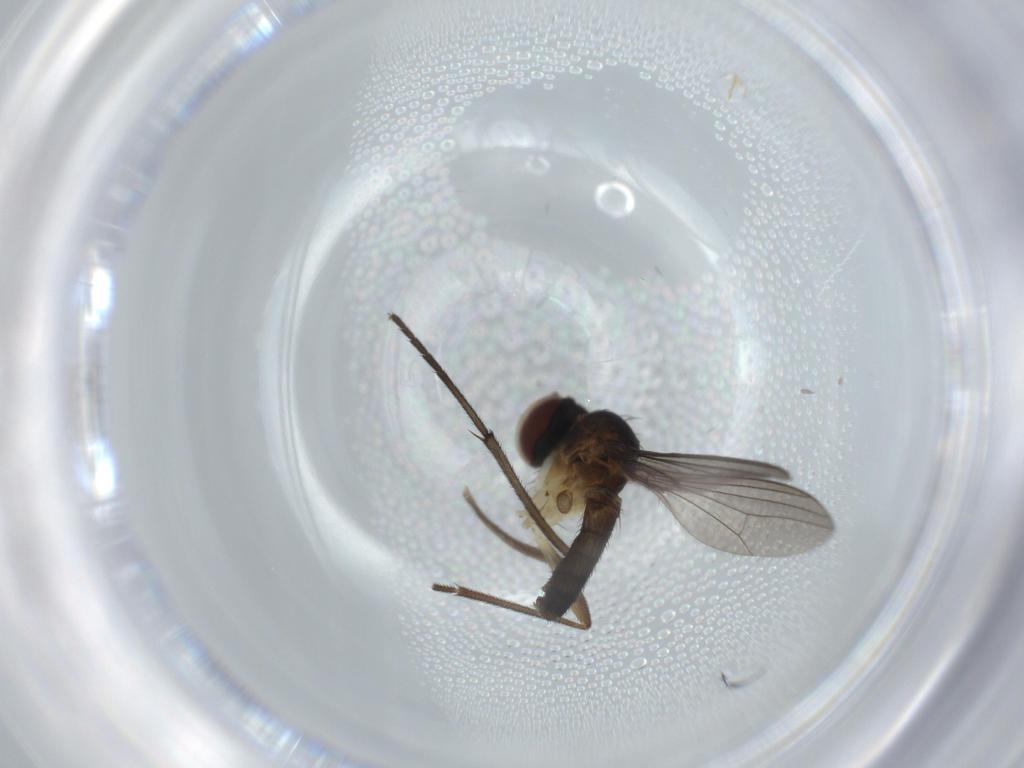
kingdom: Animalia
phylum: Arthropoda
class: Insecta
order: Diptera
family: Sciaridae
